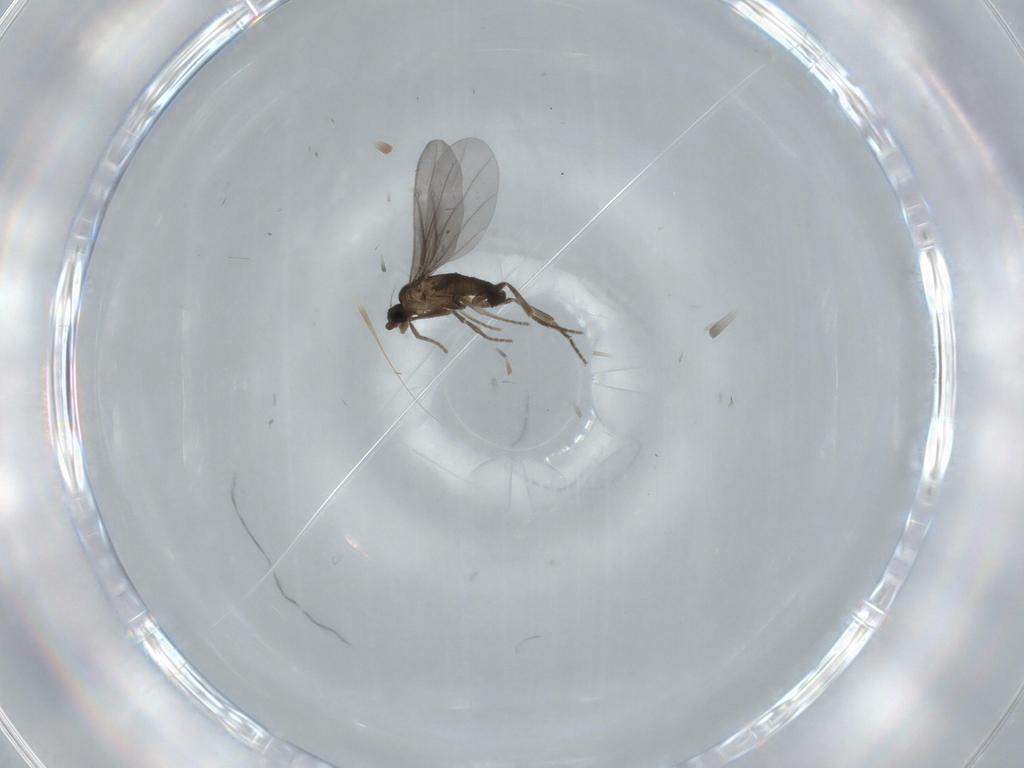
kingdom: Animalia
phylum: Arthropoda
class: Insecta
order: Diptera
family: Phoridae
